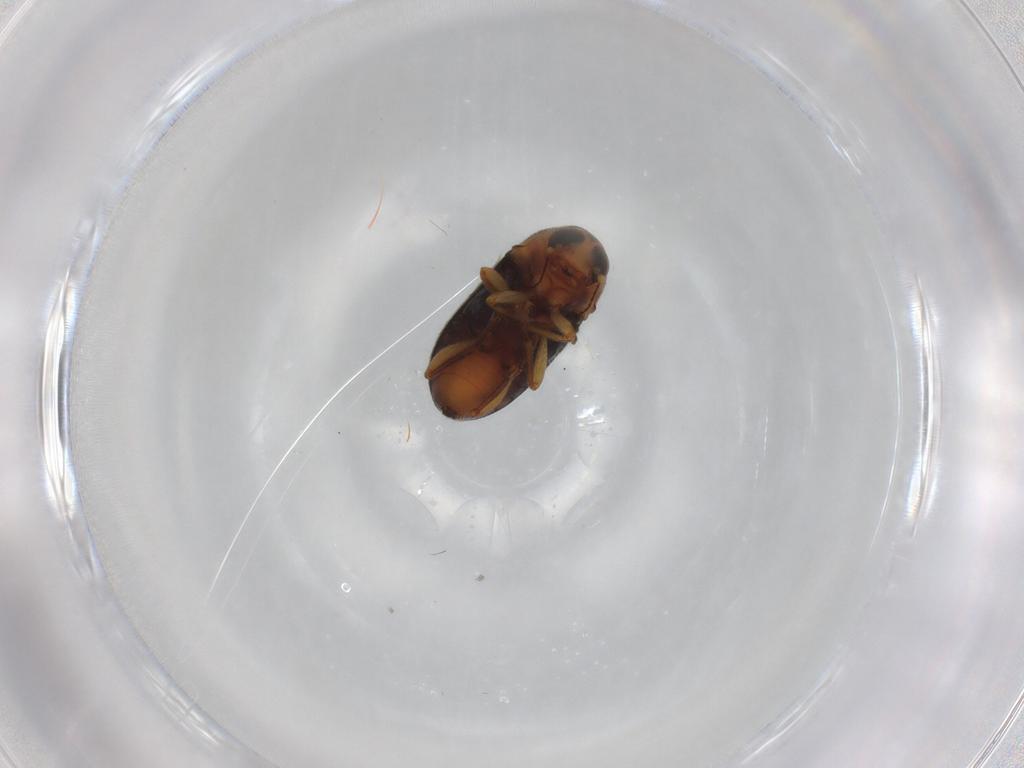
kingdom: Animalia
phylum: Arthropoda
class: Insecta
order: Coleoptera
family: Anthribidae
